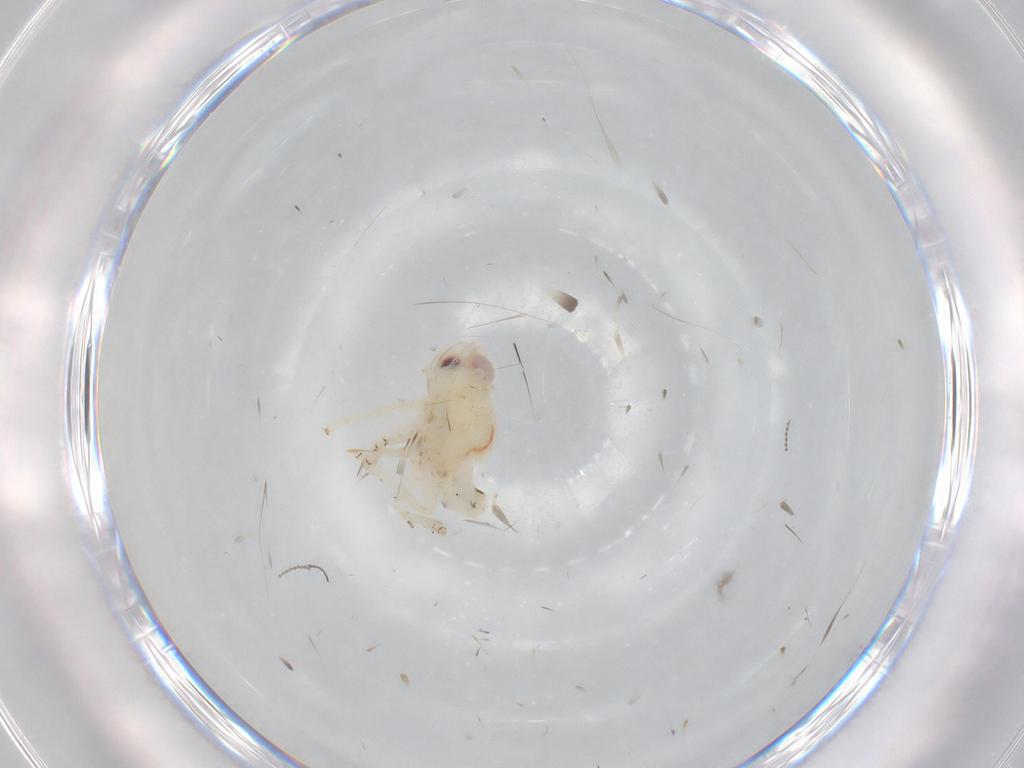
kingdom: Animalia
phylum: Arthropoda
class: Insecta
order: Hemiptera
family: Nogodinidae
